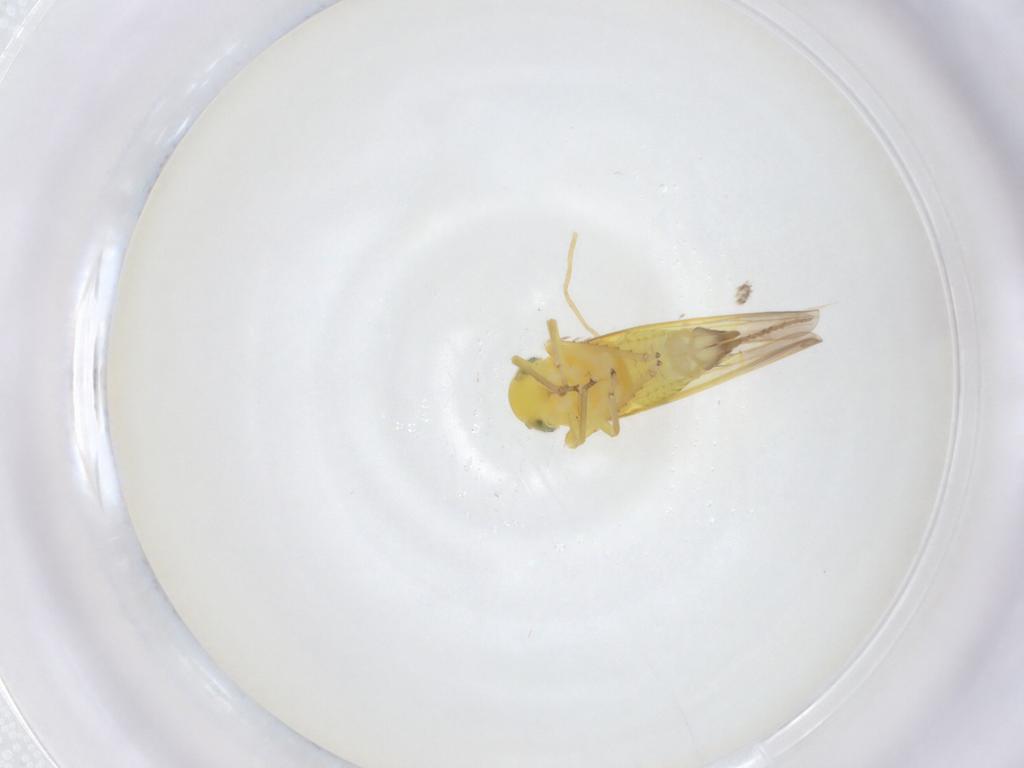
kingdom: Animalia
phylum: Arthropoda
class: Insecta
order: Hemiptera
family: Cicadellidae
